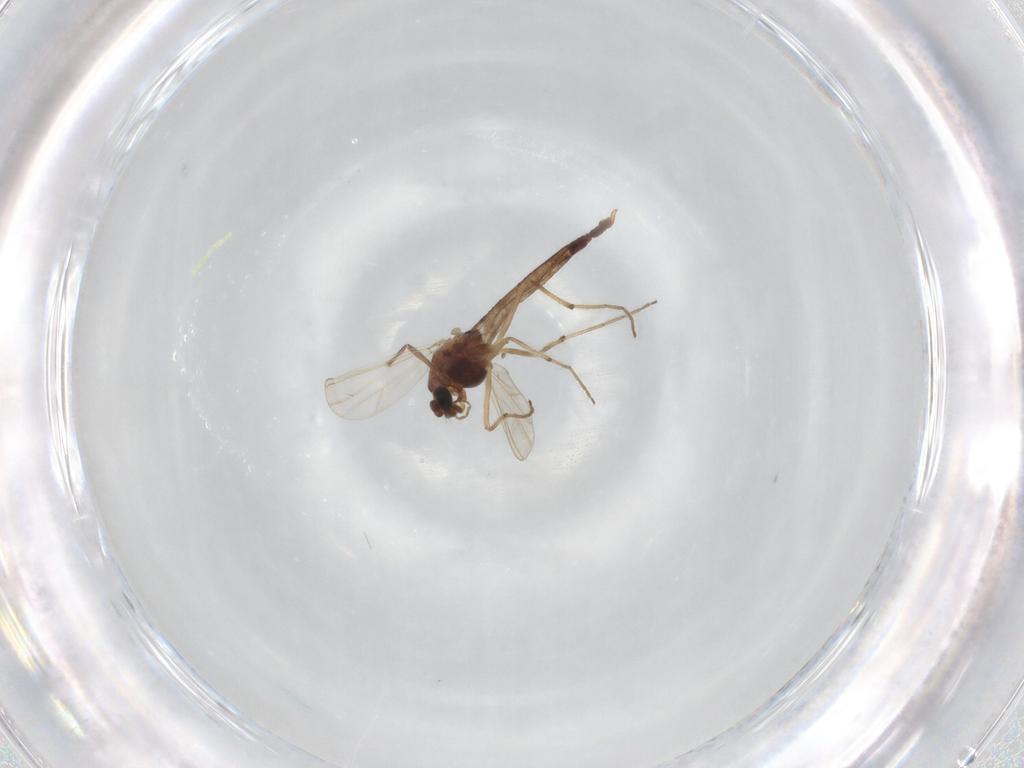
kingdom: Animalia
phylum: Arthropoda
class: Insecta
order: Diptera
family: Chironomidae
